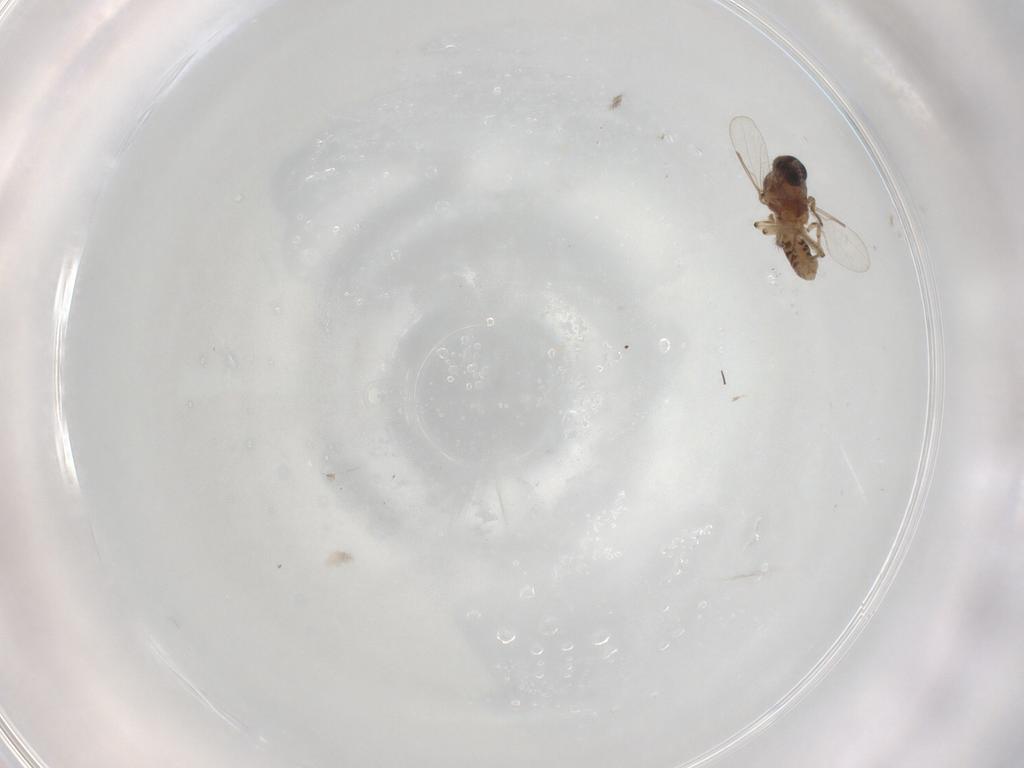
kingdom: Animalia
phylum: Arthropoda
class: Insecta
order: Diptera
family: Ceratopogonidae
